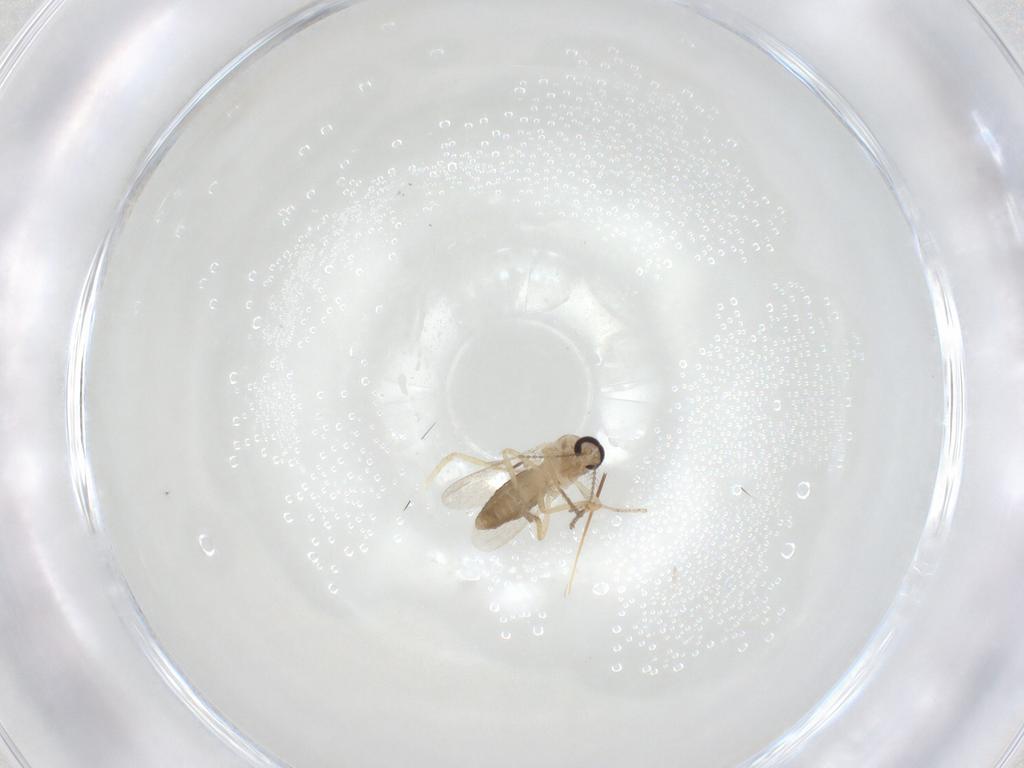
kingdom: Animalia
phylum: Arthropoda
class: Insecta
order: Diptera
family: Ceratopogonidae
